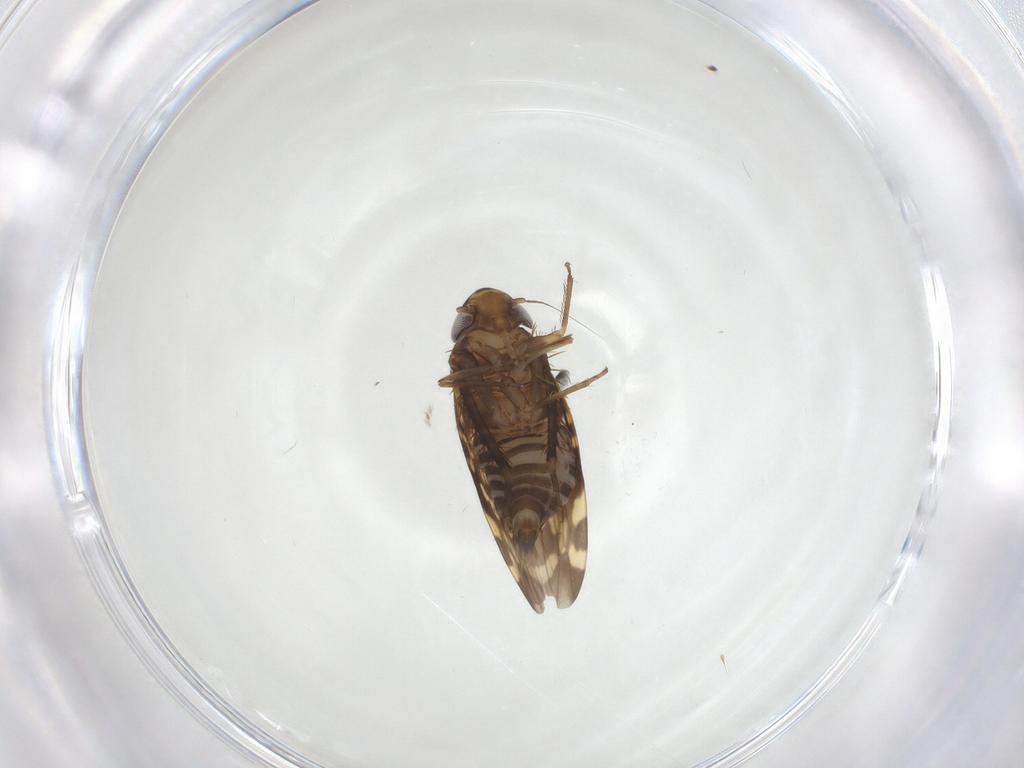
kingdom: Animalia
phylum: Arthropoda
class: Insecta
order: Hemiptera
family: Cicadellidae
